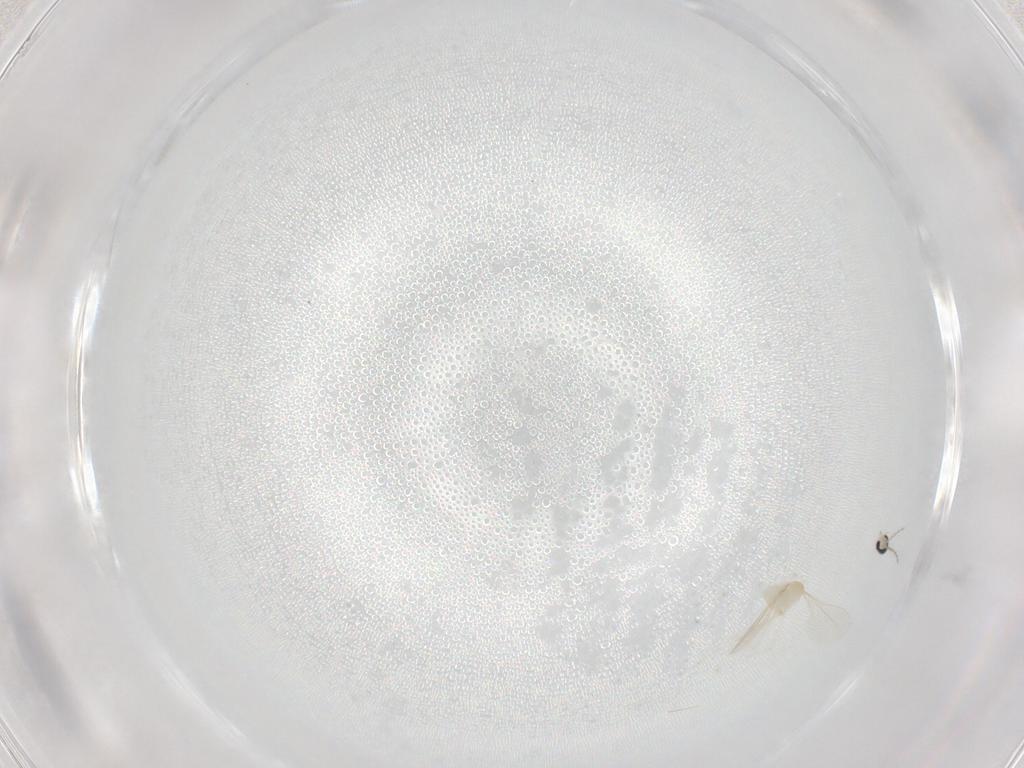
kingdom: Animalia
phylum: Arthropoda
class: Insecta
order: Diptera
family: Cecidomyiidae
